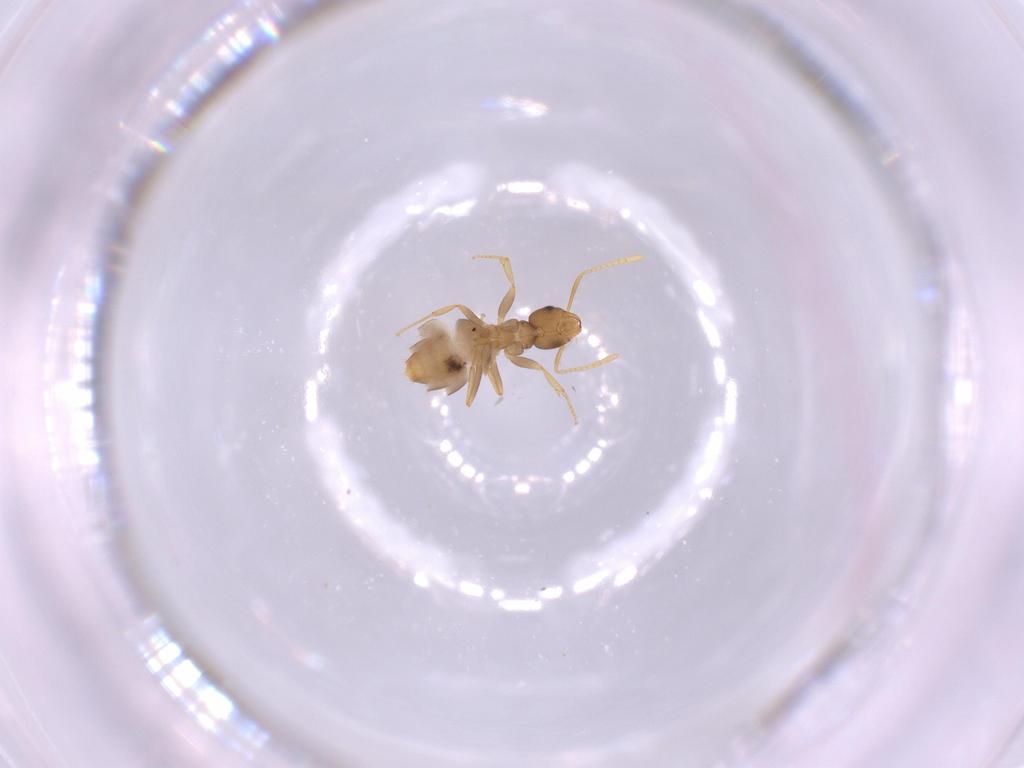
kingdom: Animalia
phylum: Arthropoda
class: Insecta
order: Hymenoptera
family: Formicidae
